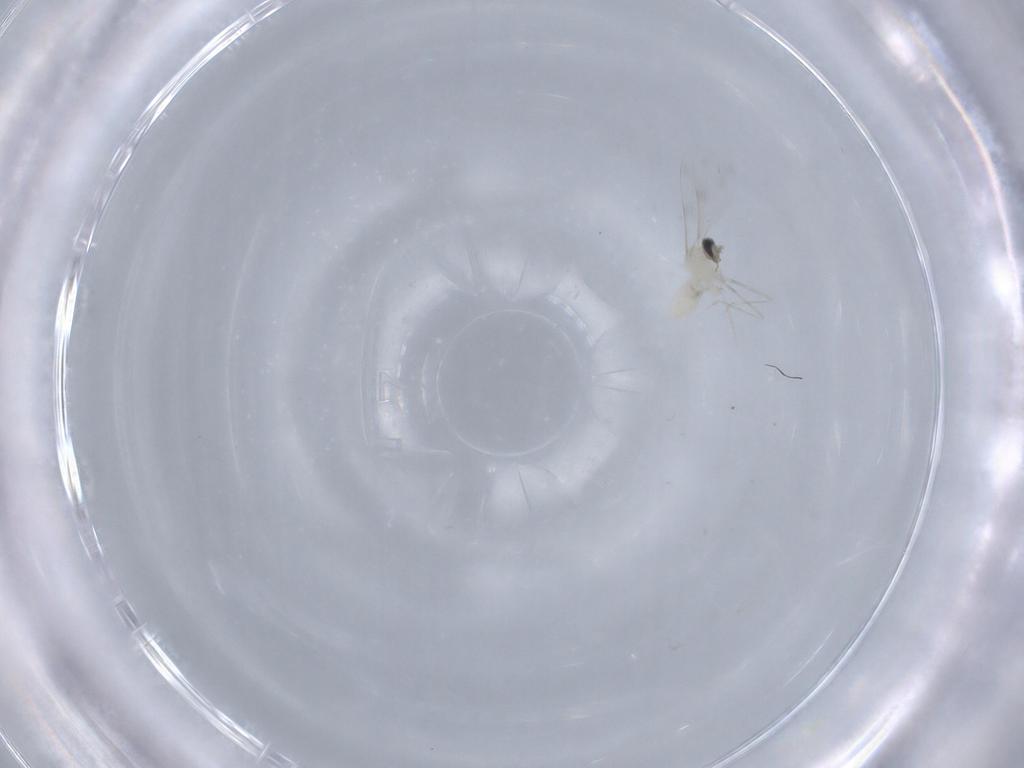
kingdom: Animalia
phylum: Arthropoda
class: Insecta
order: Diptera
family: Cecidomyiidae
